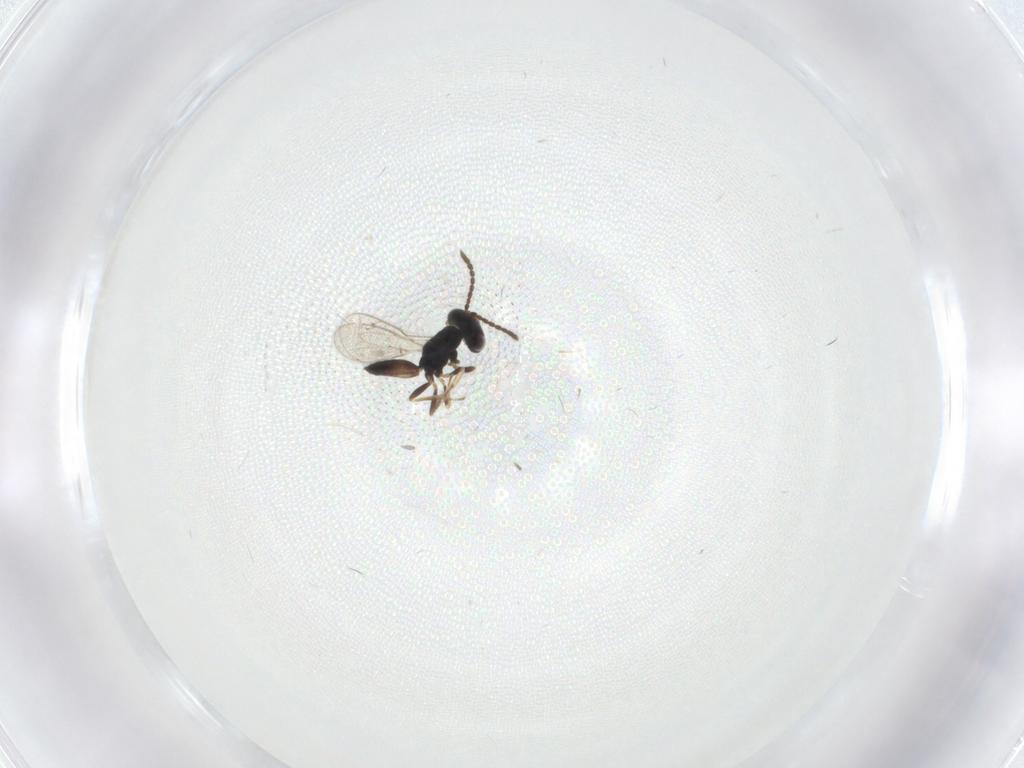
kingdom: Animalia
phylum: Arthropoda
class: Insecta
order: Hymenoptera
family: Pteromalidae
